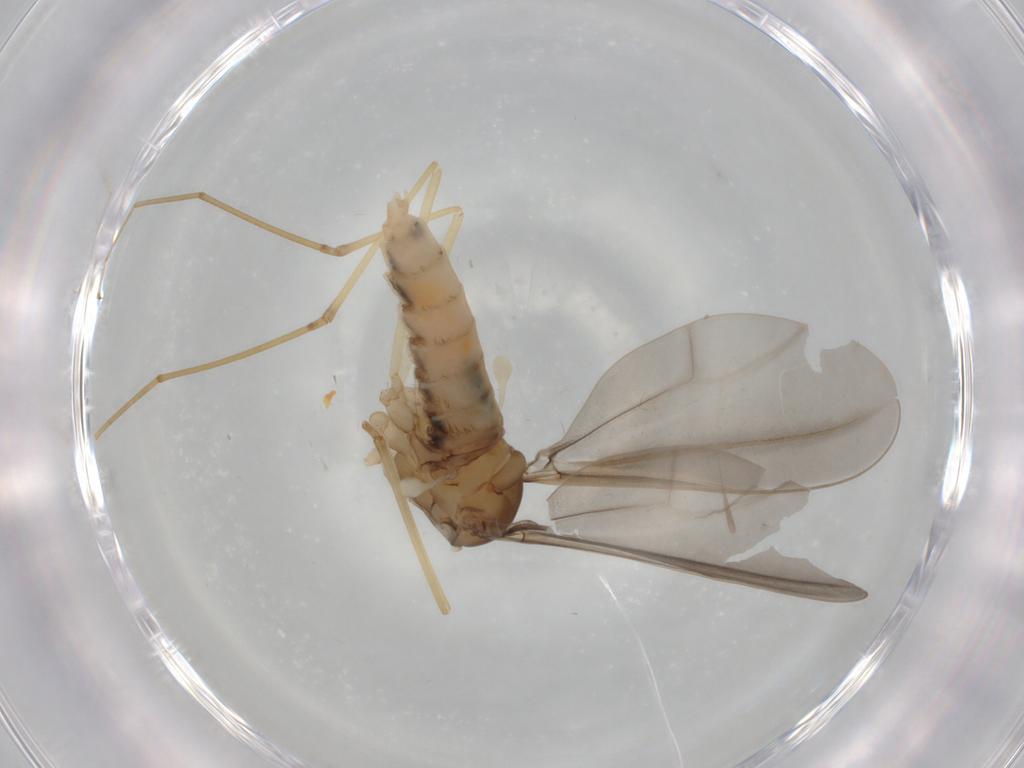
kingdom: Animalia
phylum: Arthropoda
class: Insecta
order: Diptera
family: Cecidomyiidae
